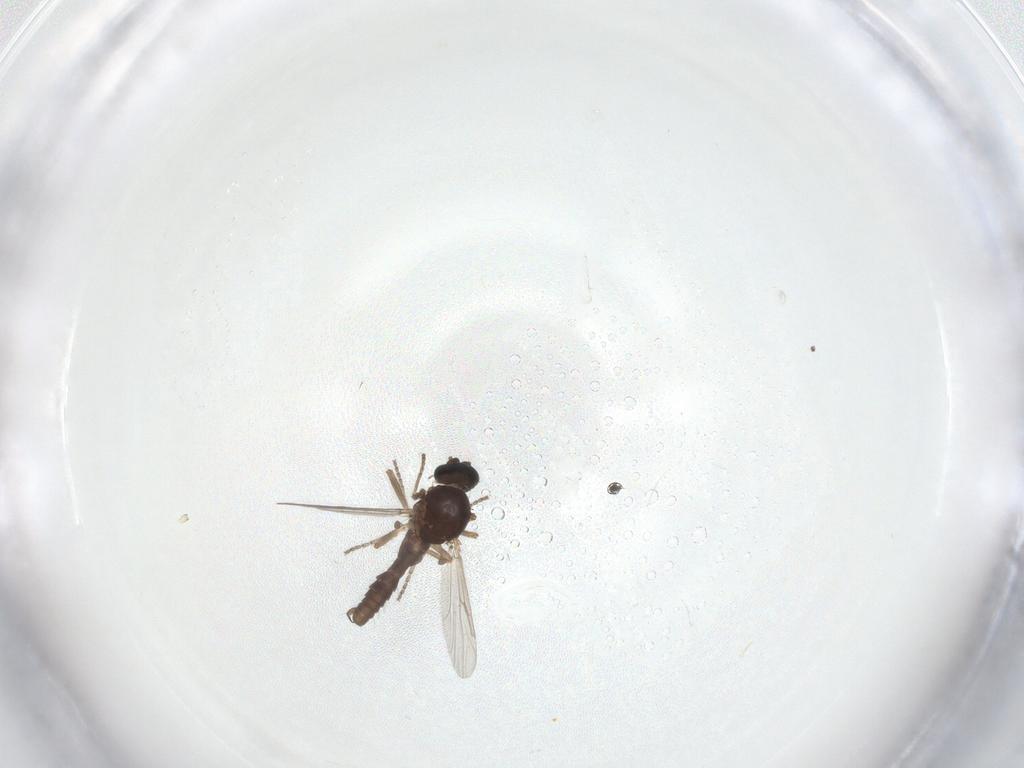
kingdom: Animalia
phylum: Arthropoda
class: Insecta
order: Diptera
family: Ceratopogonidae
